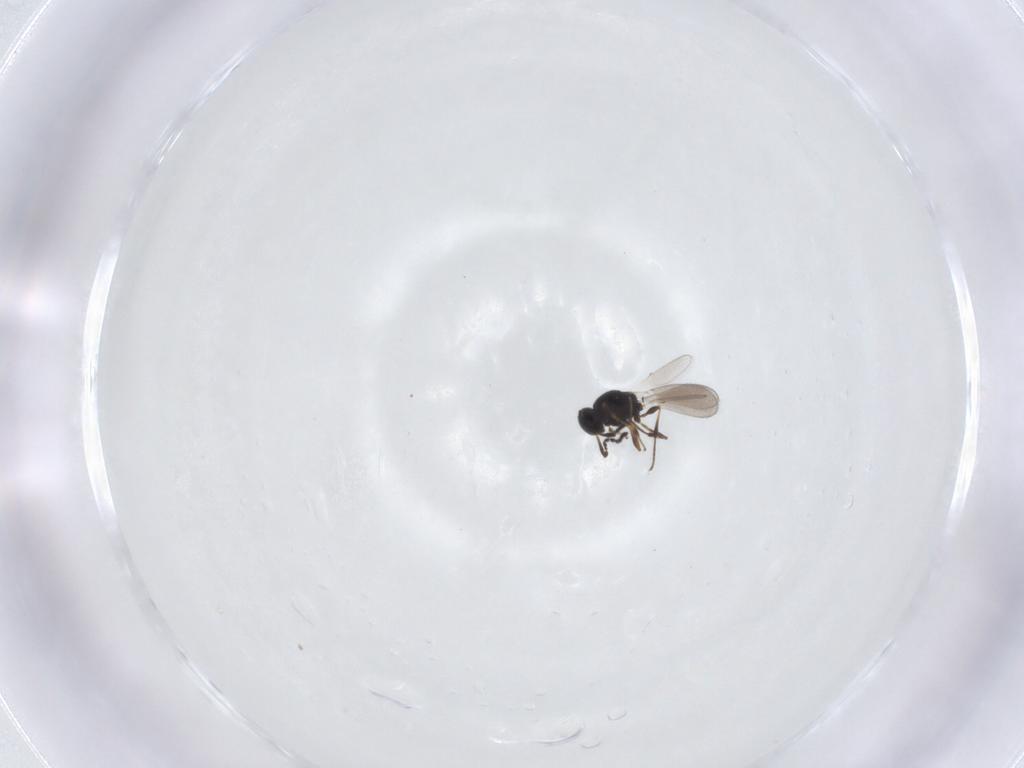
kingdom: Animalia
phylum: Arthropoda
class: Insecta
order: Hymenoptera
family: Platygastridae
